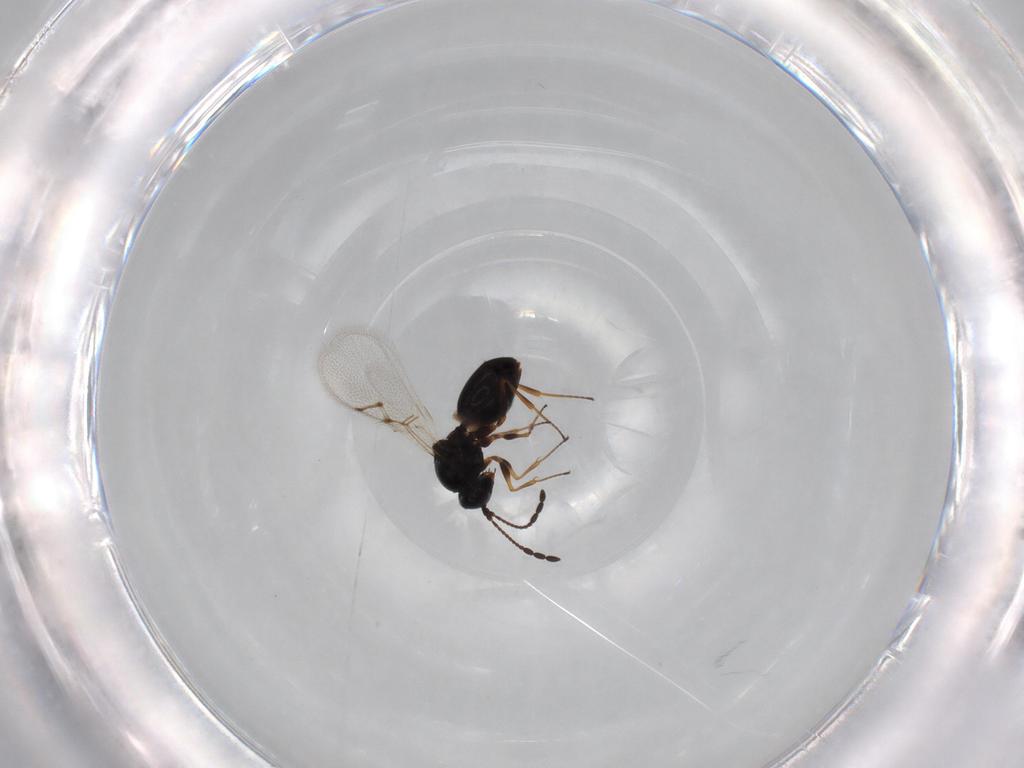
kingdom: Animalia
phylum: Arthropoda
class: Insecta
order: Hymenoptera
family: Figitidae
